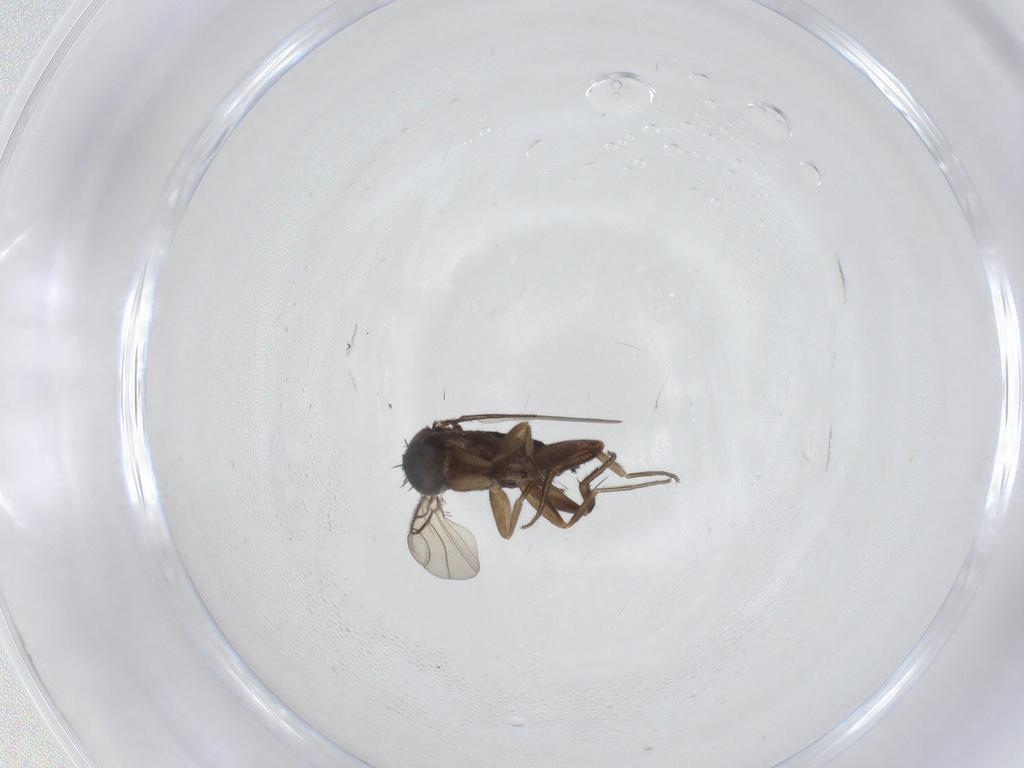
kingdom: Animalia
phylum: Arthropoda
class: Insecta
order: Diptera
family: Phoridae
